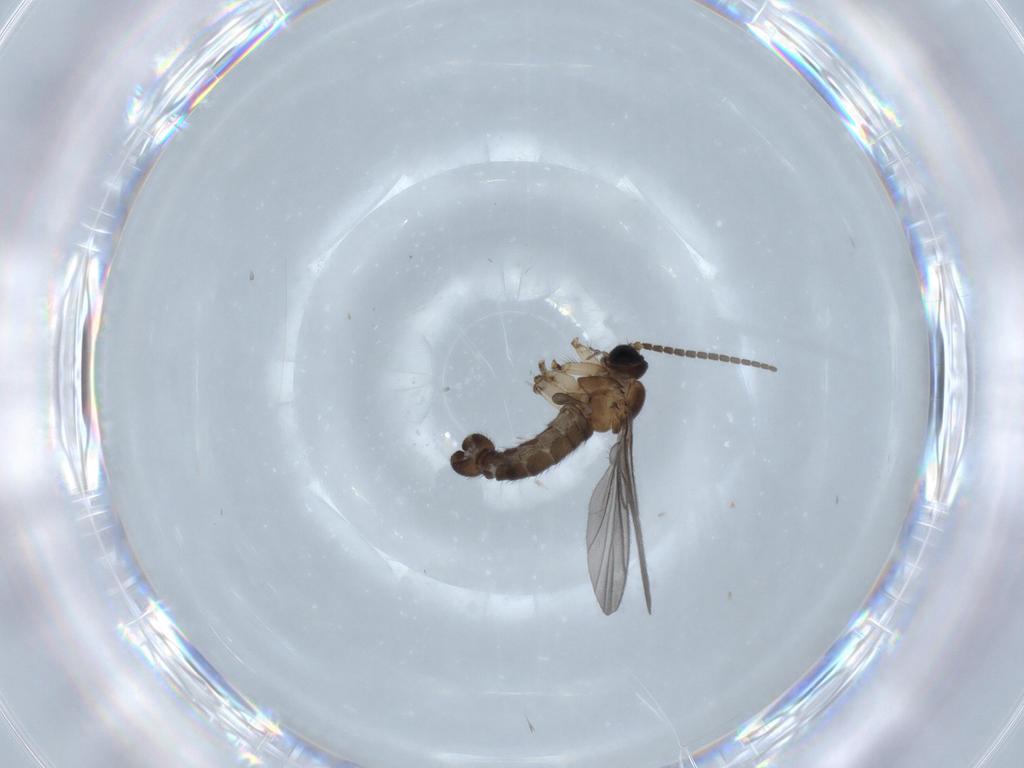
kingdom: Animalia
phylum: Arthropoda
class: Insecta
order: Diptera
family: Sciaridae
